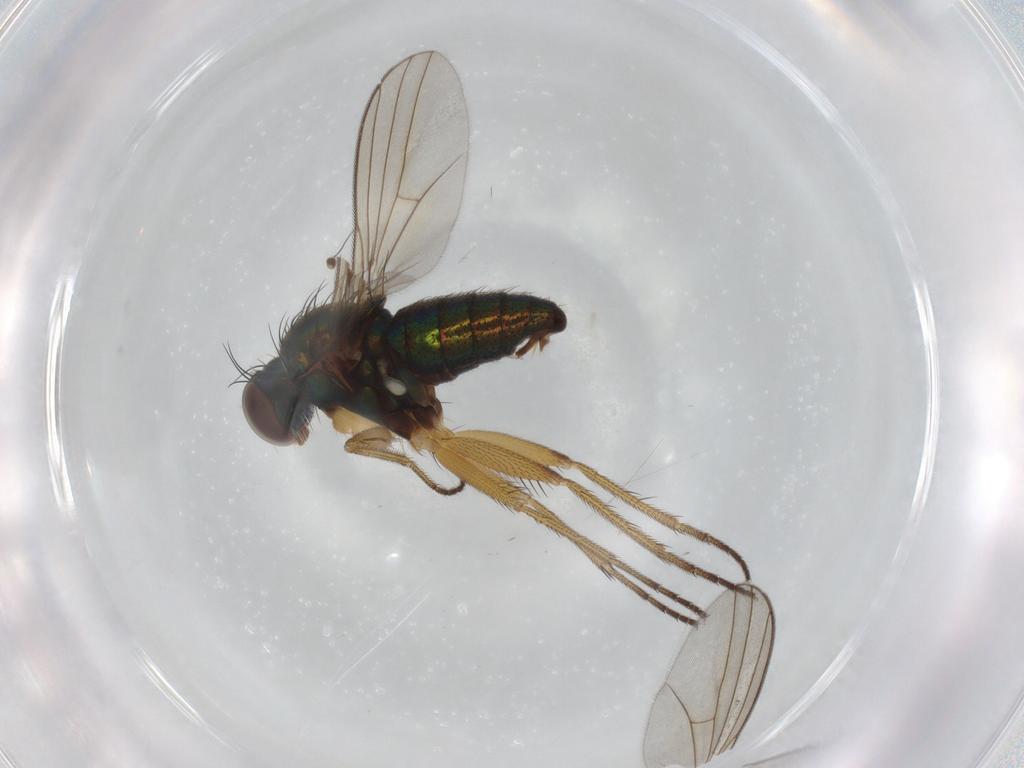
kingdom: Animalia
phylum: Arthropoda
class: Insecta
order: Diptera
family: Dolichopodidae
